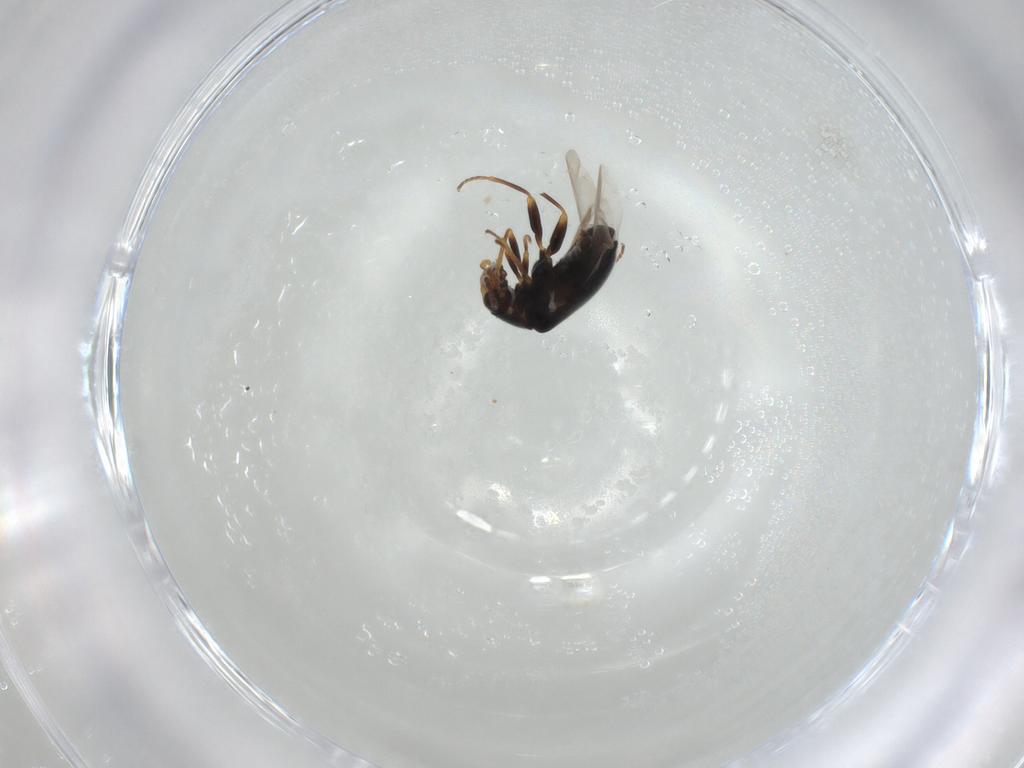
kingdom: Animalia
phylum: Arthropoda
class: Insecta
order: Coleoptera
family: Melyridae
